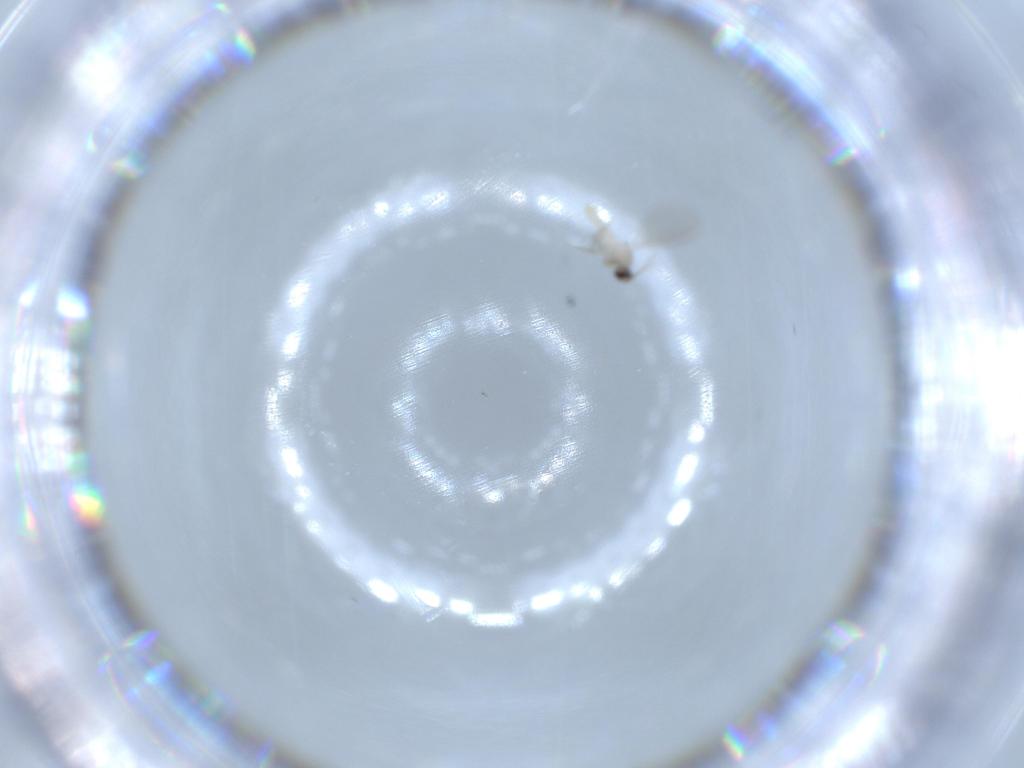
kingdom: Animalia
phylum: Arthropoda
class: Insecta
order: Diptera
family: Cecidomyiidae
